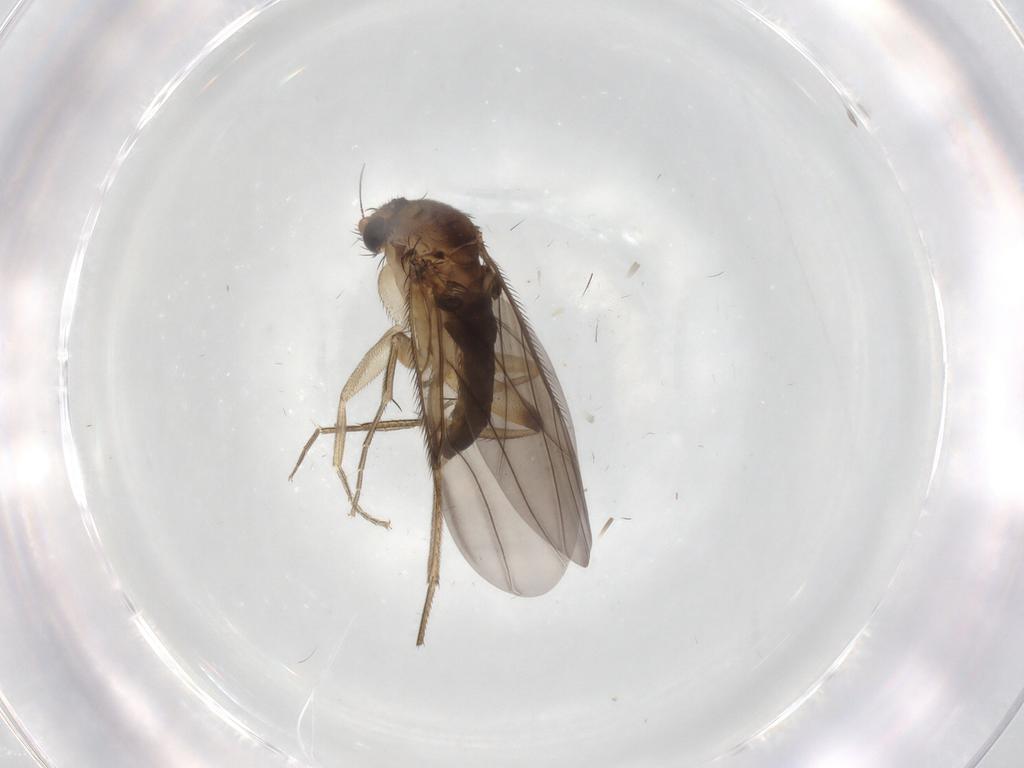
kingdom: Animalia
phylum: Arthropoda
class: Insecta
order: Diptera
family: Phoridae
